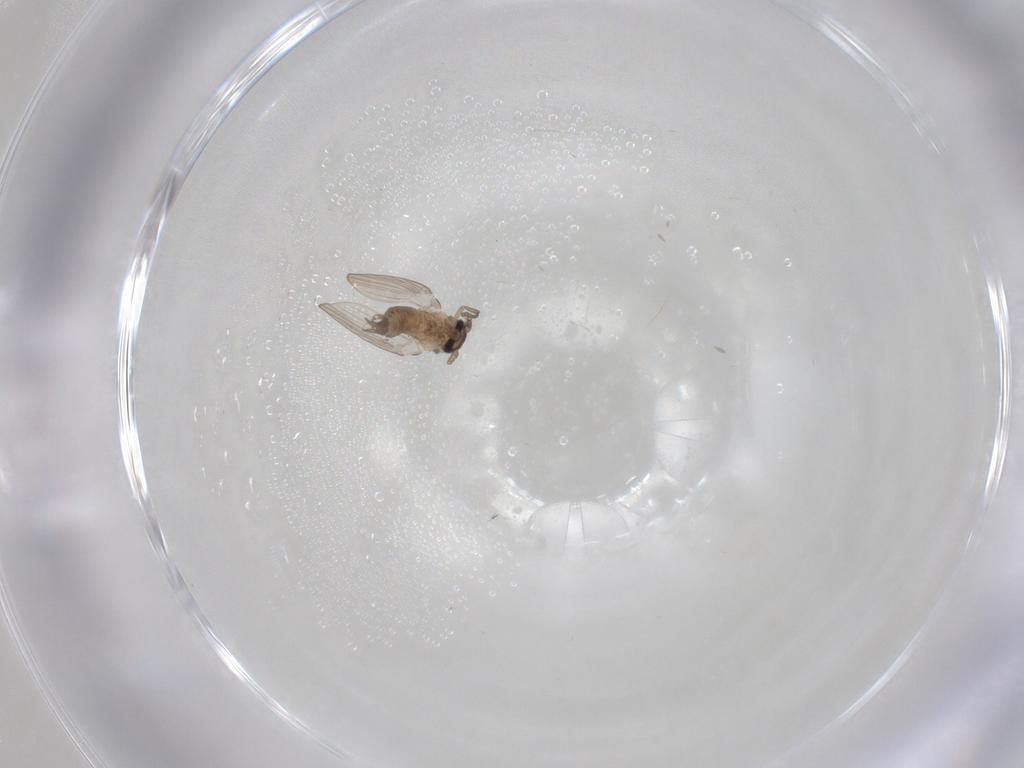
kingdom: Animalia
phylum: Arthropoda
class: Insecta
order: Diptera
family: Psychodidae
